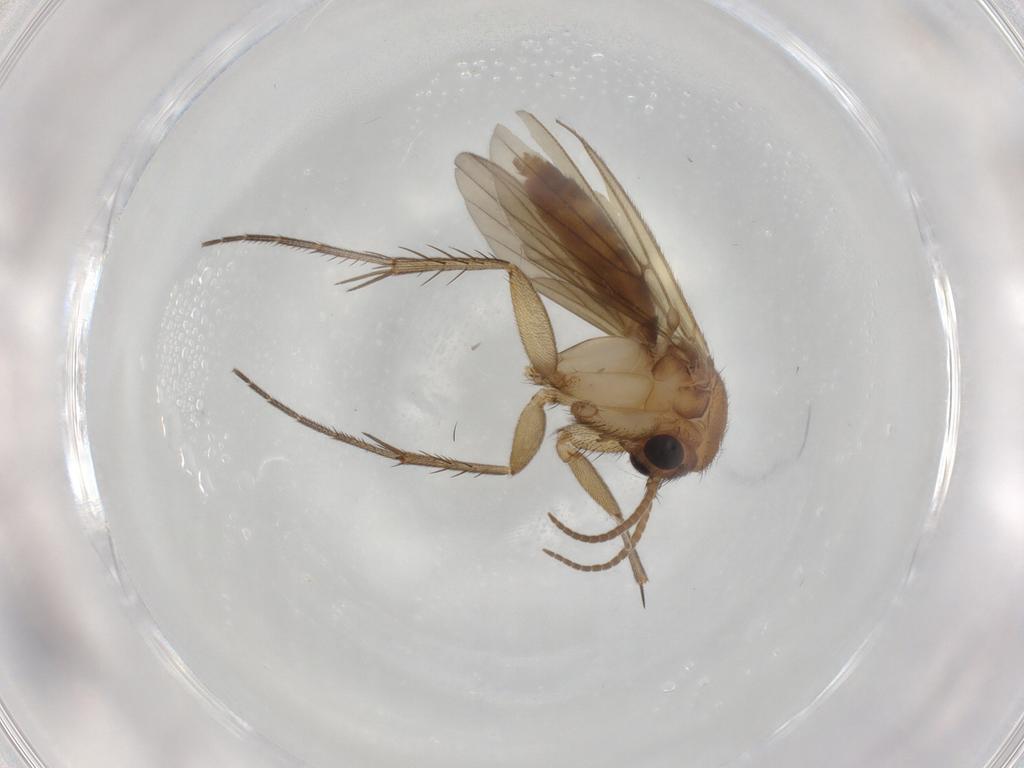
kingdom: Animalia
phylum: Arthropoda
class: Insecta
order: Diptera
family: Mycetophilidae
